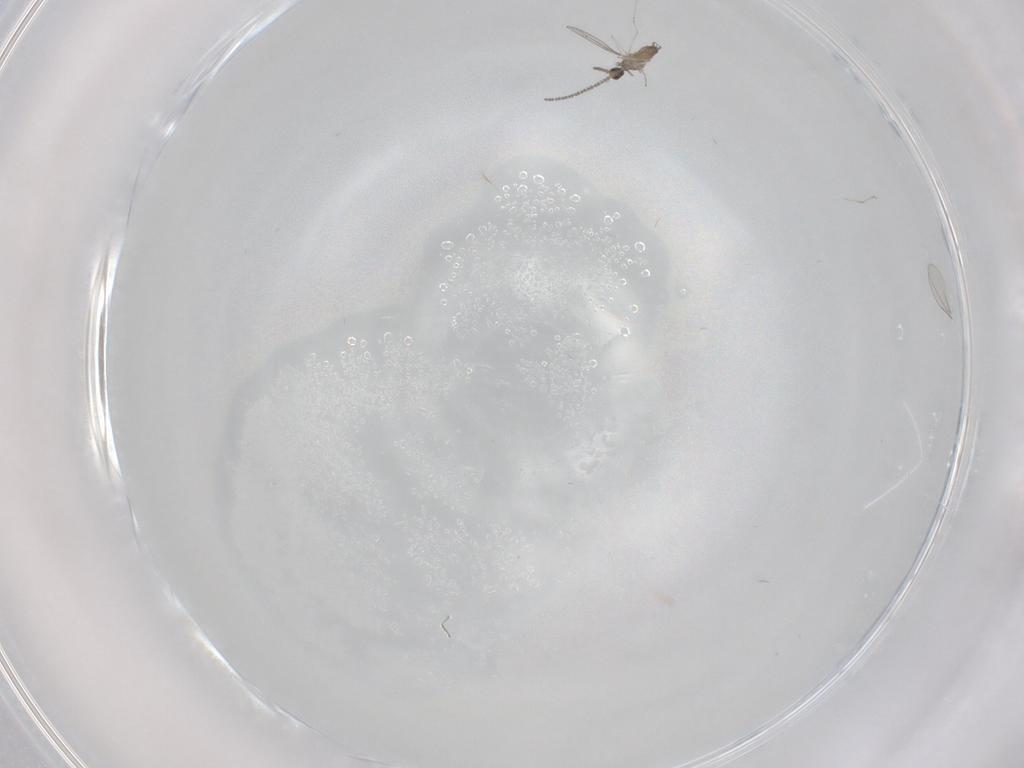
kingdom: Animalia
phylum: Arthropoda
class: Insecta
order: Diptera
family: Cecidomyiidae
